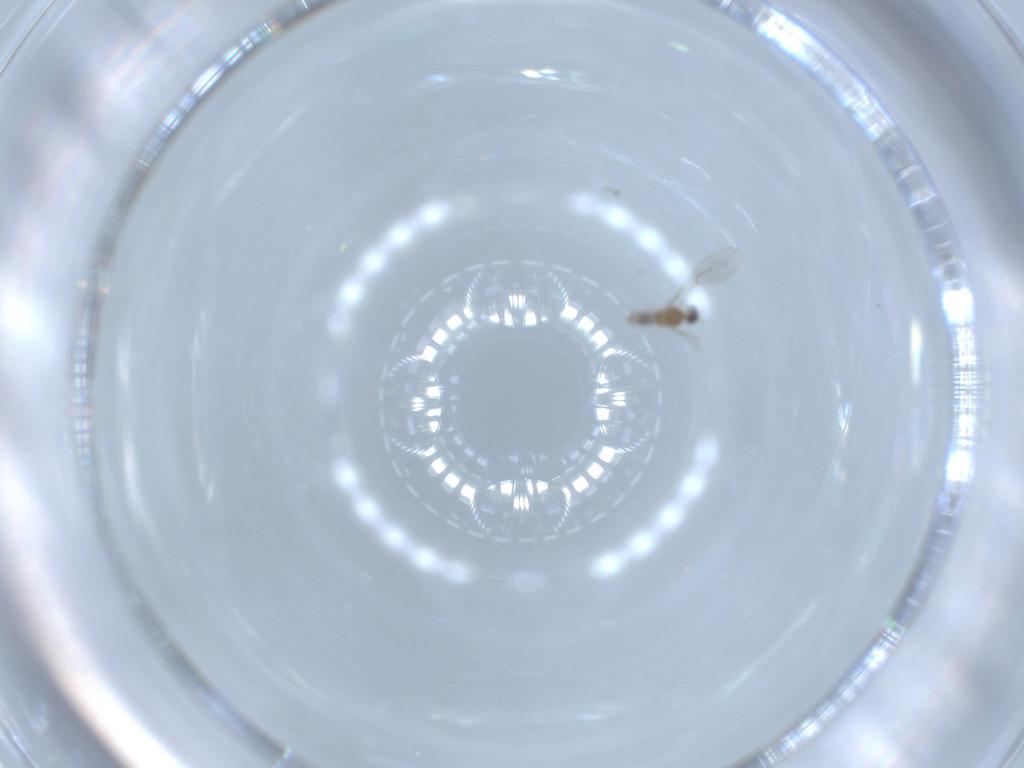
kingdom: Animalia
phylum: Arthropoda
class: Insecta
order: Diptera
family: Cecidomyiidae
